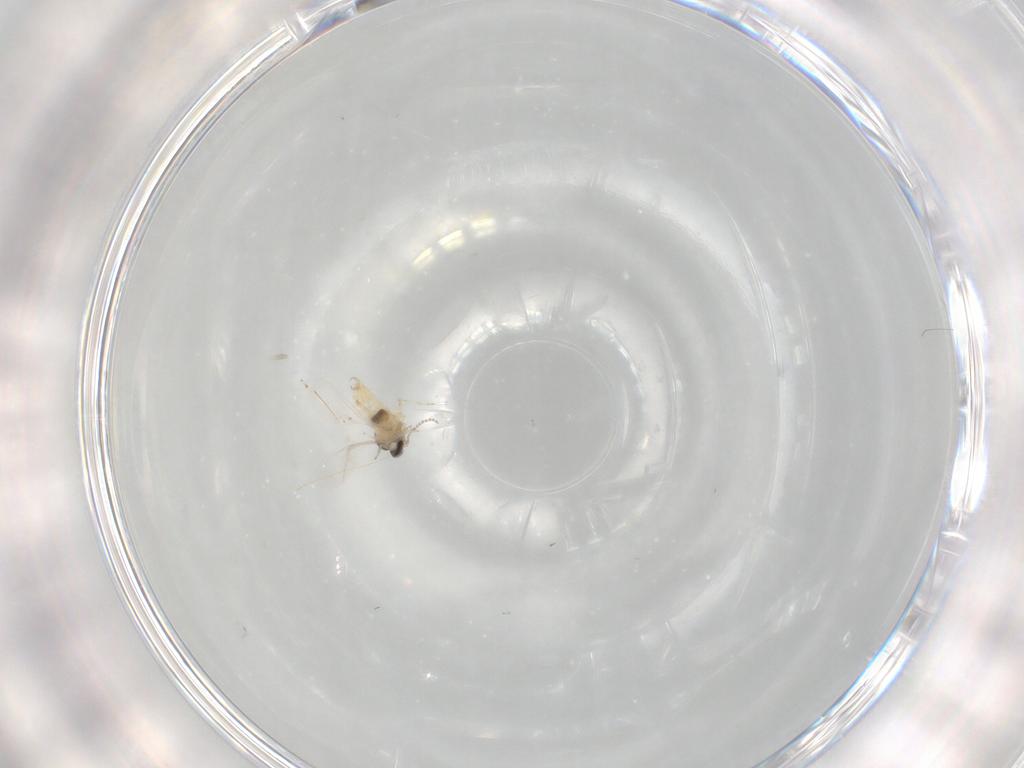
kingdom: Animalia
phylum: Arthropoda
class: Insecta
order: Diptera
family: Cecidomyiidae
